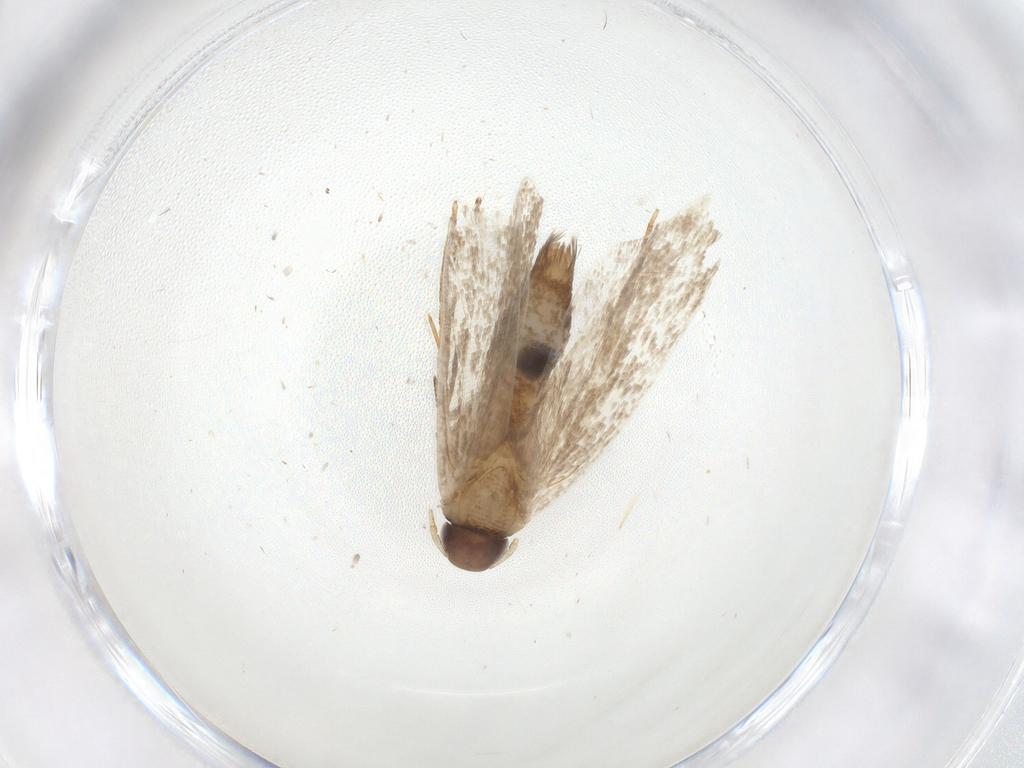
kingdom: Animalia
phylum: Arthropoda
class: Insecta
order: Lepidoptera
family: Gelechiidae
